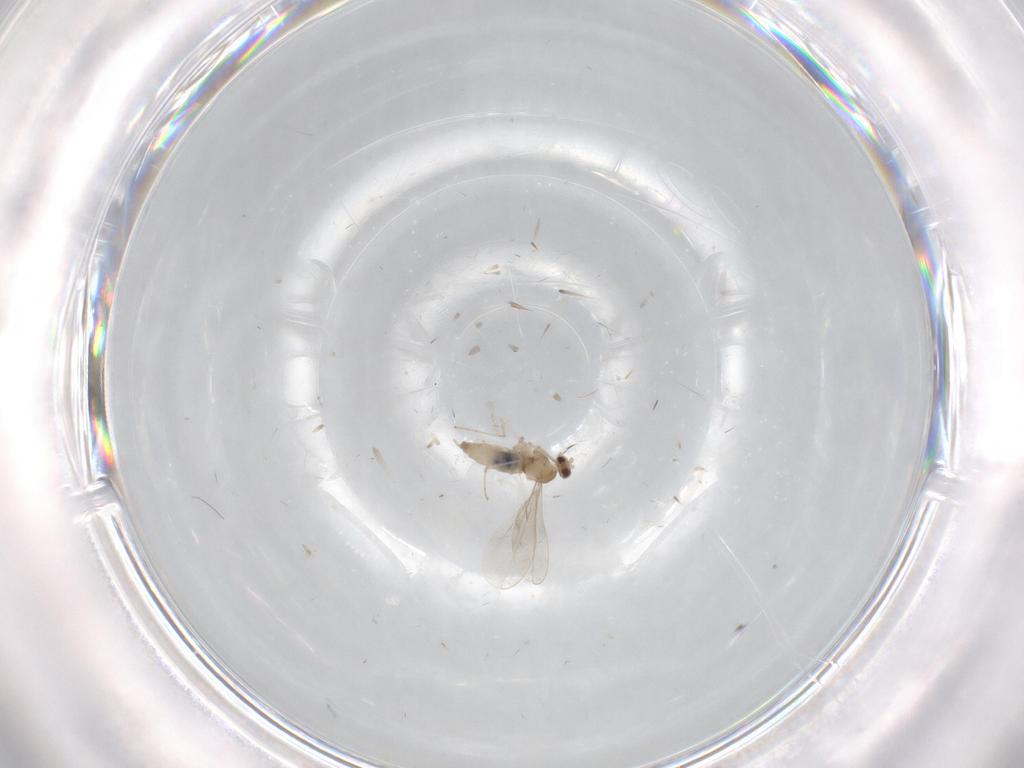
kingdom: Animalia
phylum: Arthropoda
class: Insecta
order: Diptera
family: Cecidomyiidae
